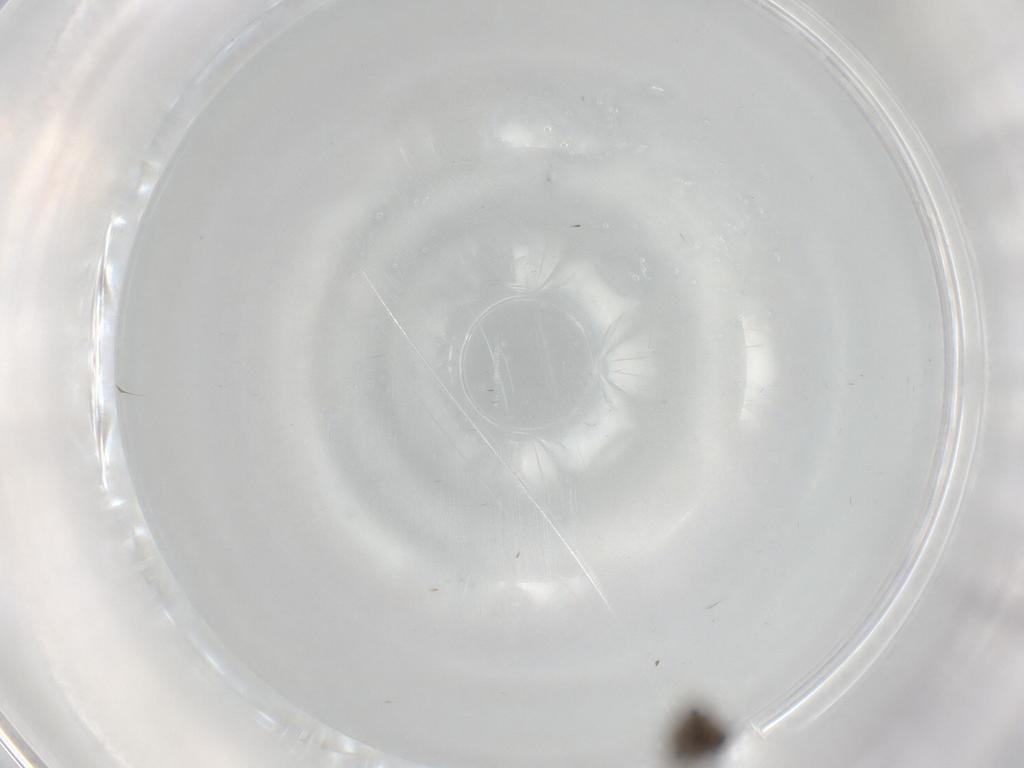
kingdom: Animalia
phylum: Arthropoda
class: Insecta
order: Diptera
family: Cecidomyiidae
